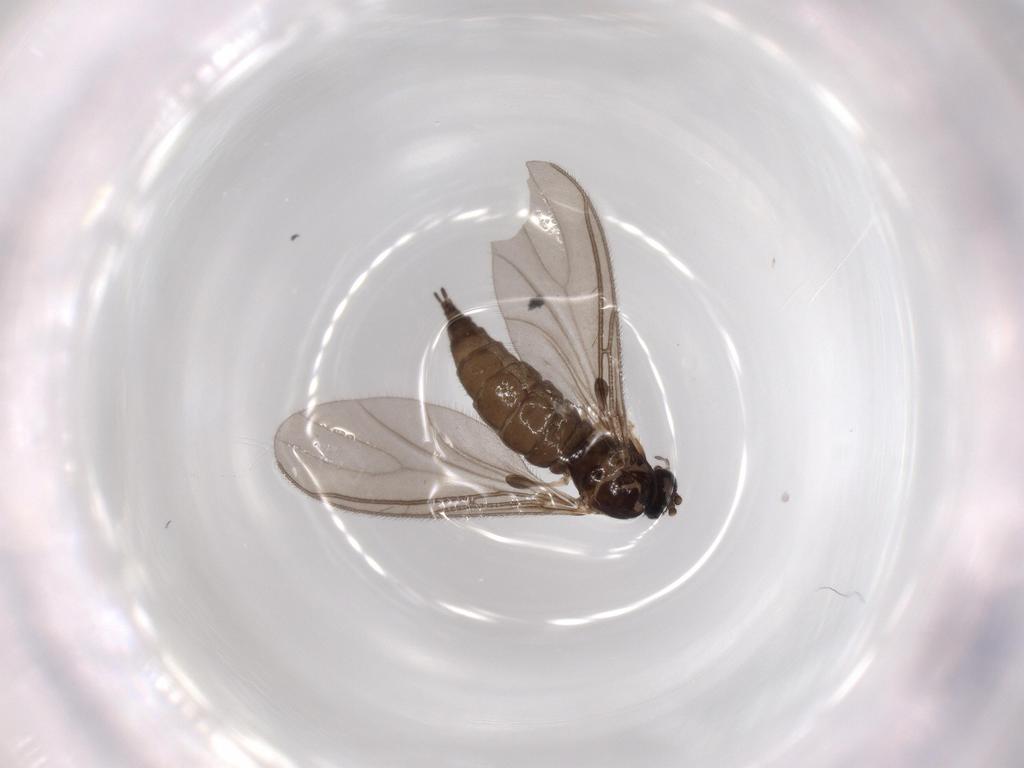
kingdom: Animalia
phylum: Arthropoda
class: Insecta
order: Diptera
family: Sciaridae
